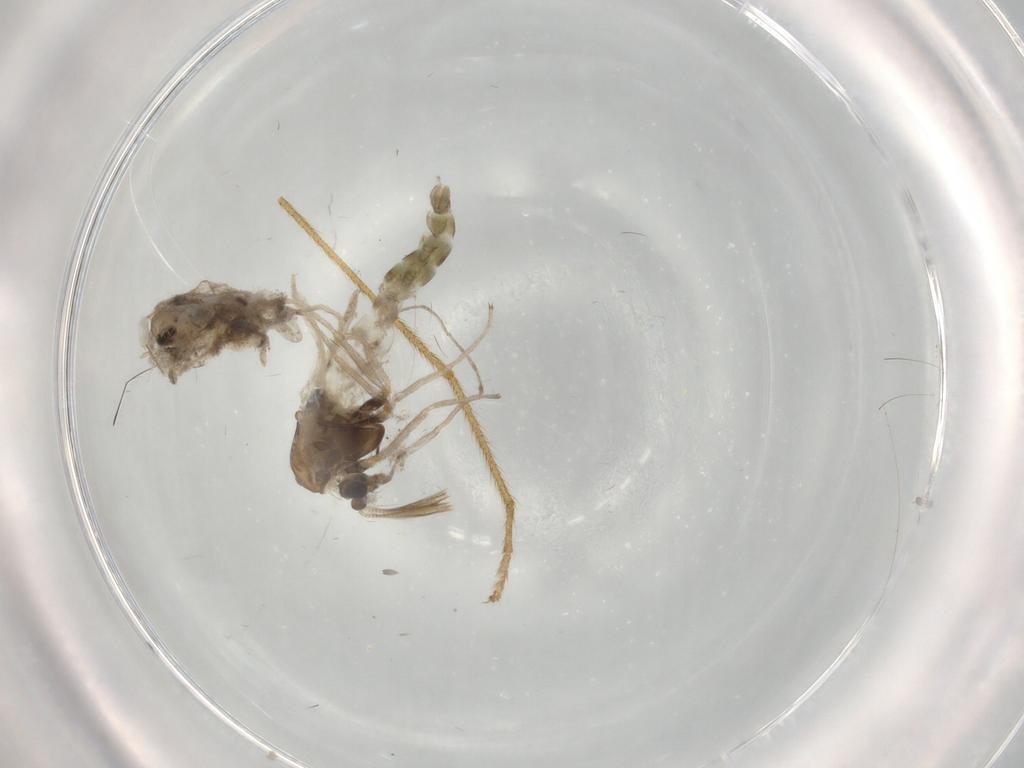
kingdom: Animalia
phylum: Arthropoda
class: Insecta
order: Diptera
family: Chironomidae
